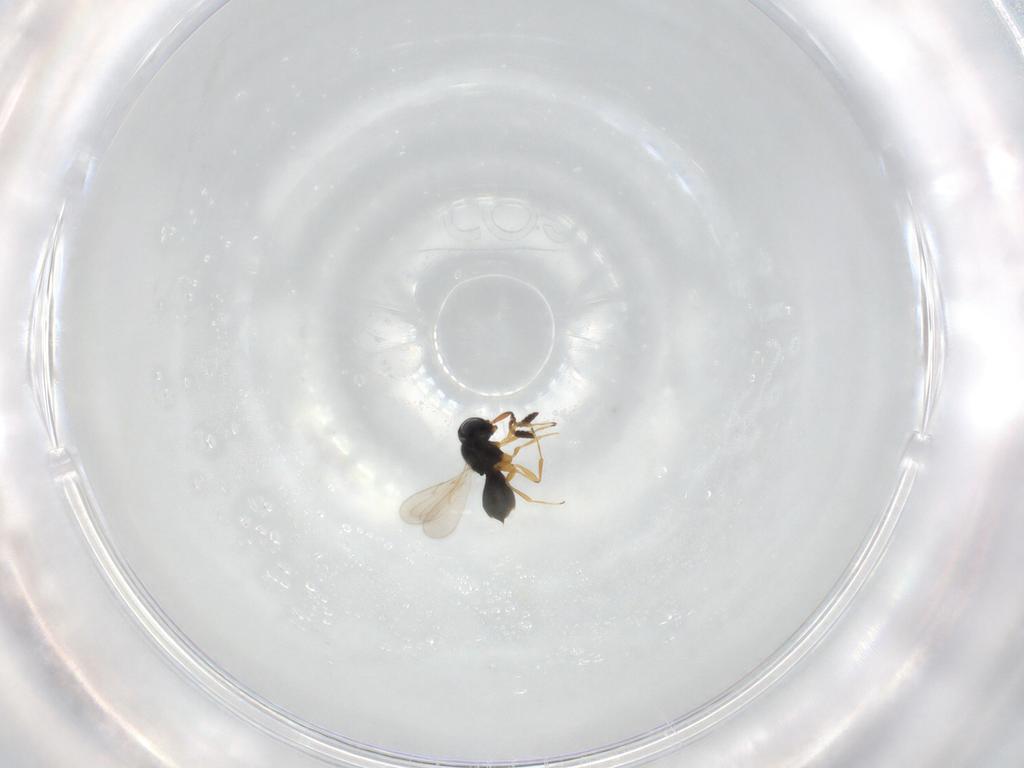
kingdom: Animalia
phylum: Arthropoda
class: Insecta
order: Hymenoptera
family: Scelionidae
